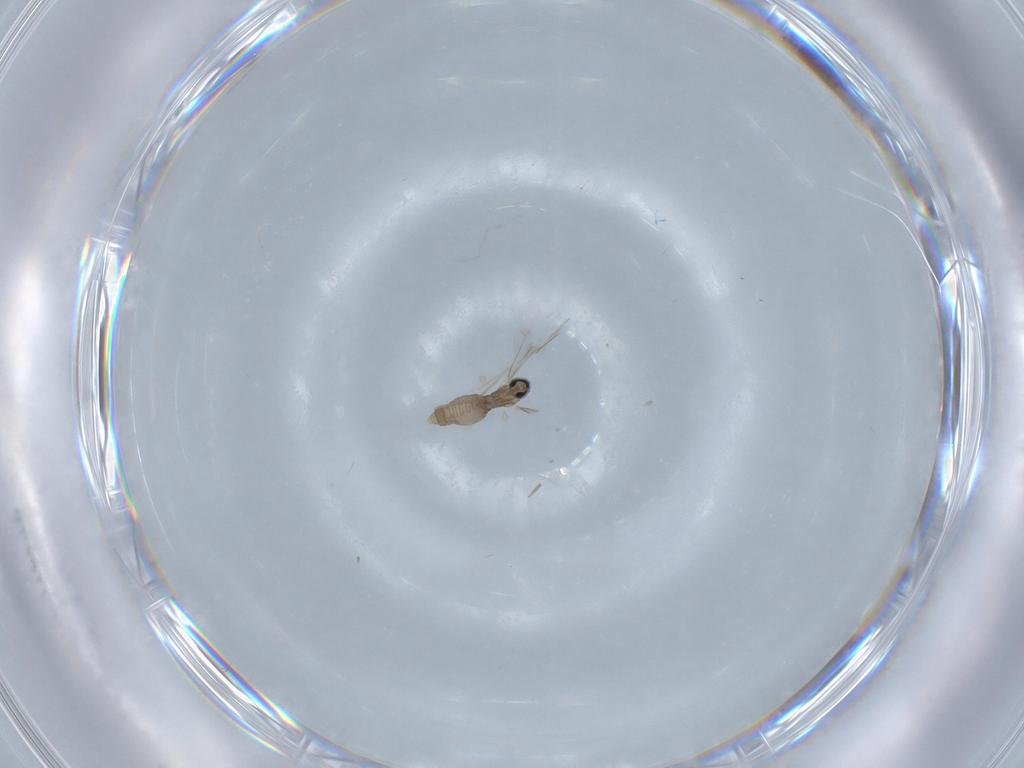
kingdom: Animalia
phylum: Arthropoda
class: Insecta
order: Diptera
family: Cecidomyiidae
